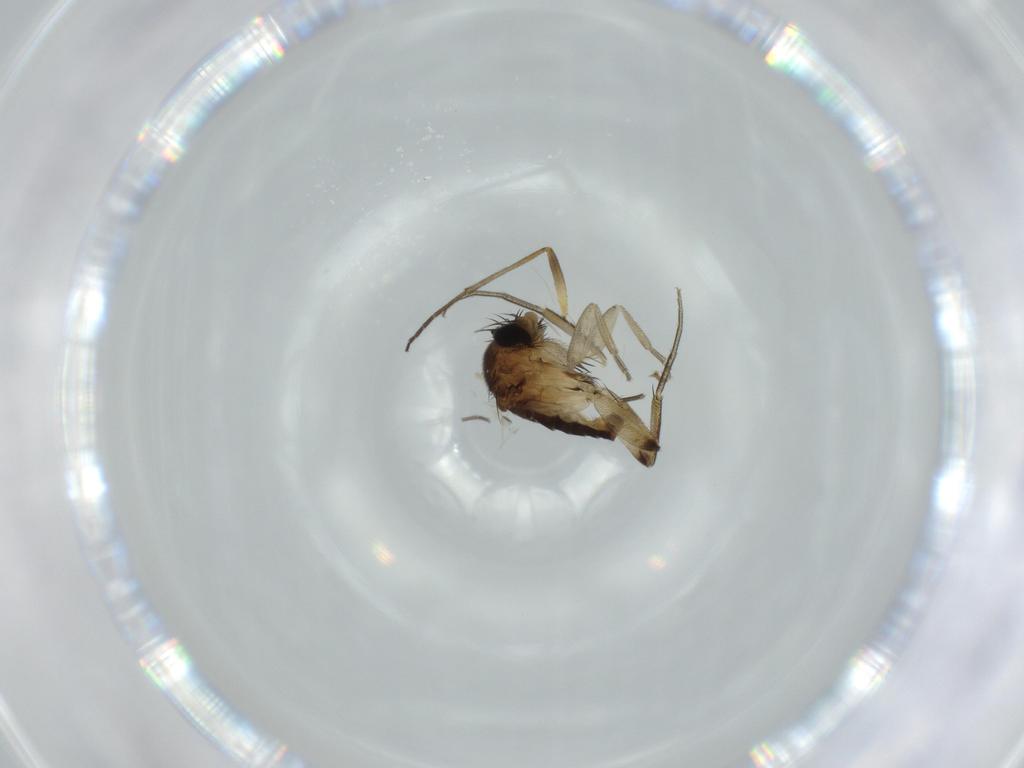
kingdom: Animalia
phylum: Arthropoda
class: Insecta
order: Diptera
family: Phoridae
